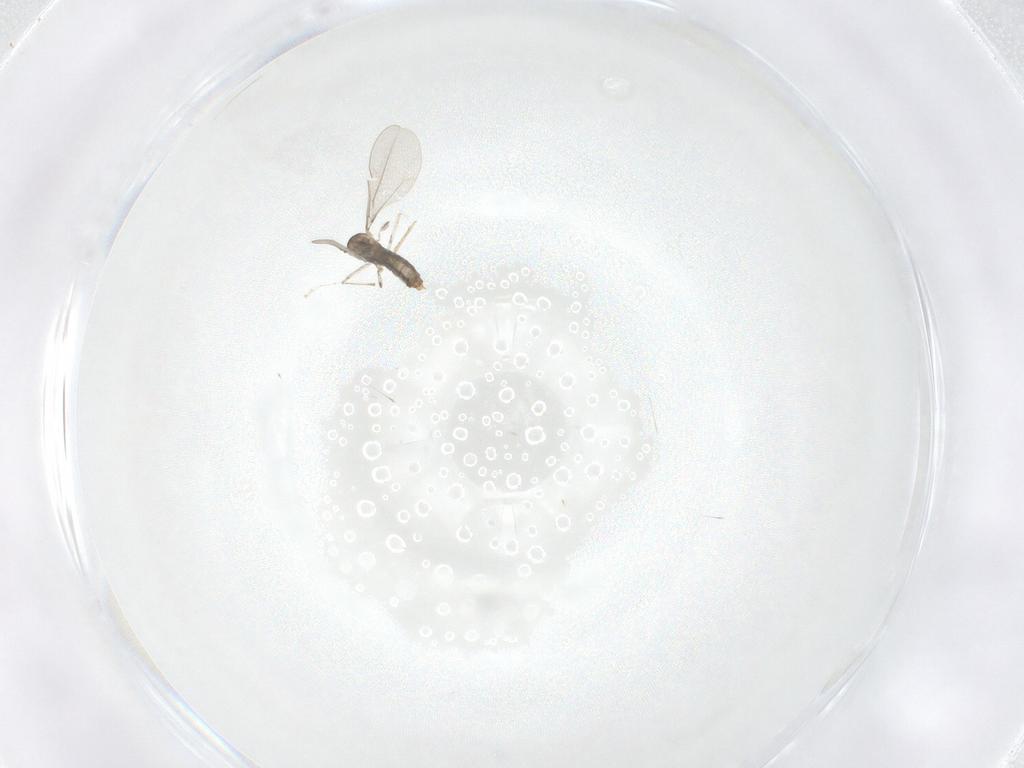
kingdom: Animalia
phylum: Arthropoda
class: Insecta
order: Diptera
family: Cecidomyiidae
